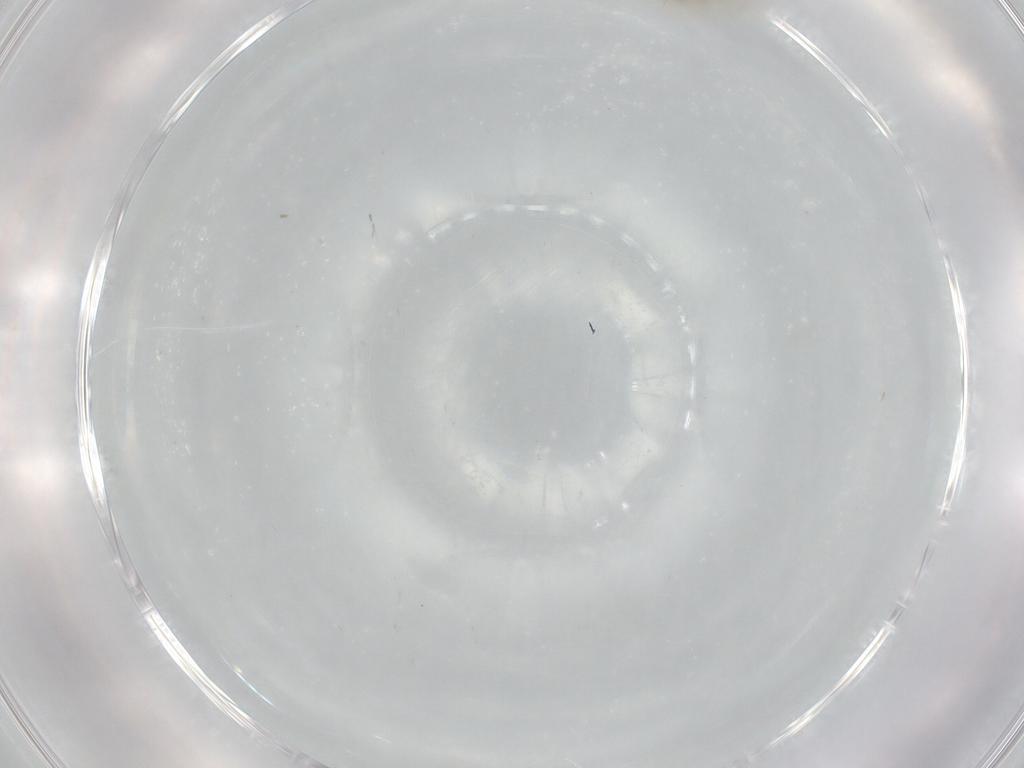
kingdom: Animalia
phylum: Arthropoda
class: Insecta
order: Diptera
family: Cecidomyiidae
